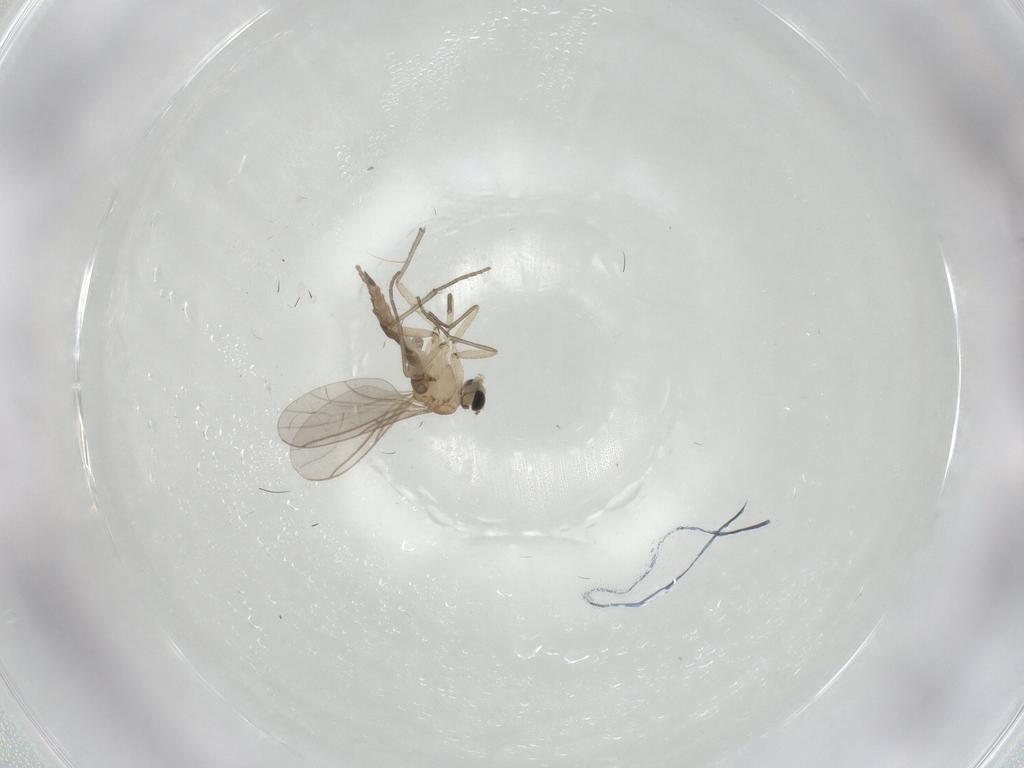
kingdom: Animalia
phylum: Arthropoda
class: Insecta
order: Diptera
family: Sciaridae
